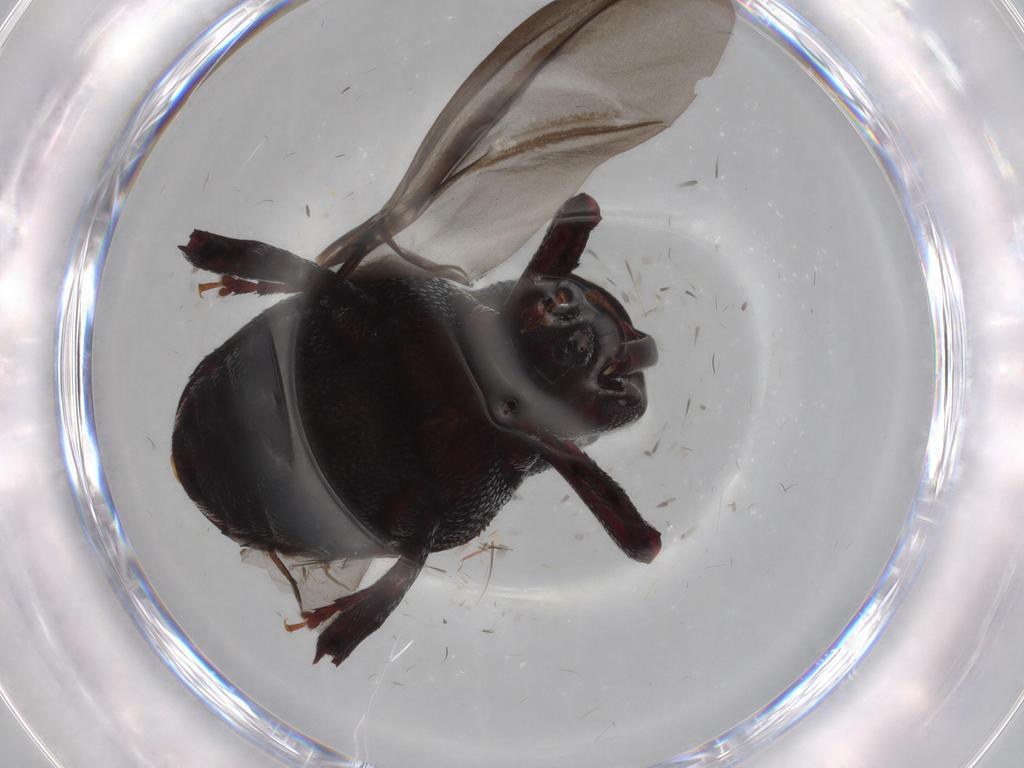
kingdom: Animalia
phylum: Arthropoda
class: Insecta
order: Coleoptera
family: Curculionidae
